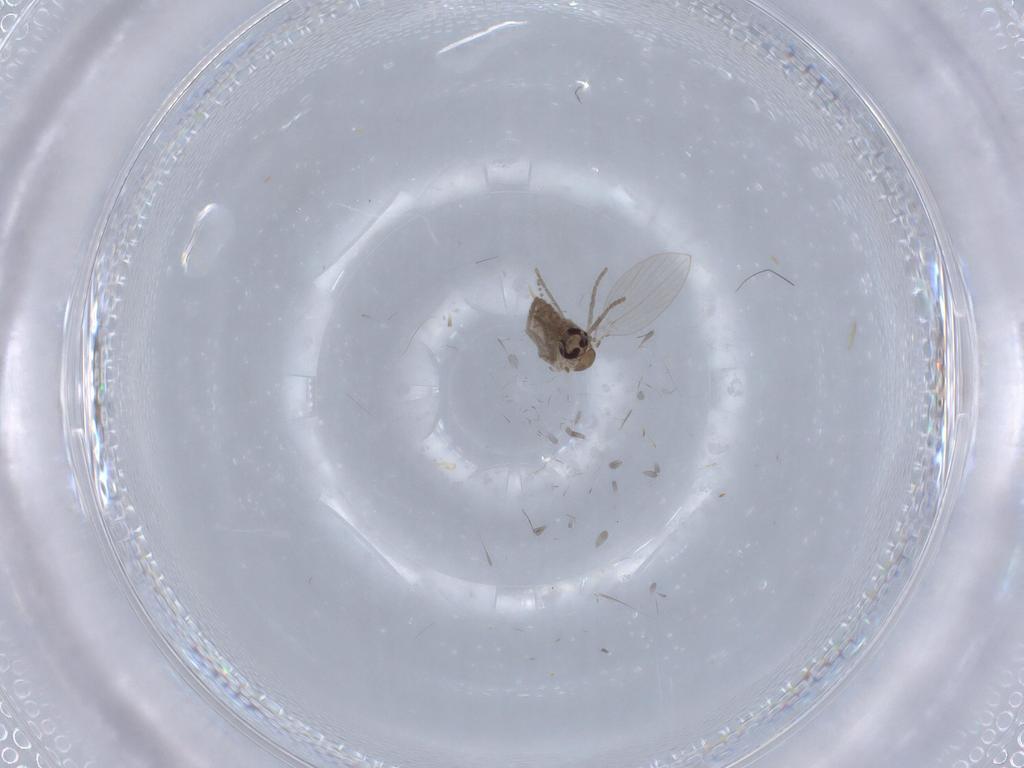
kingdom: Animalia
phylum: Arthropoda
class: Insecta
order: Diptera
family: Psychodidae
